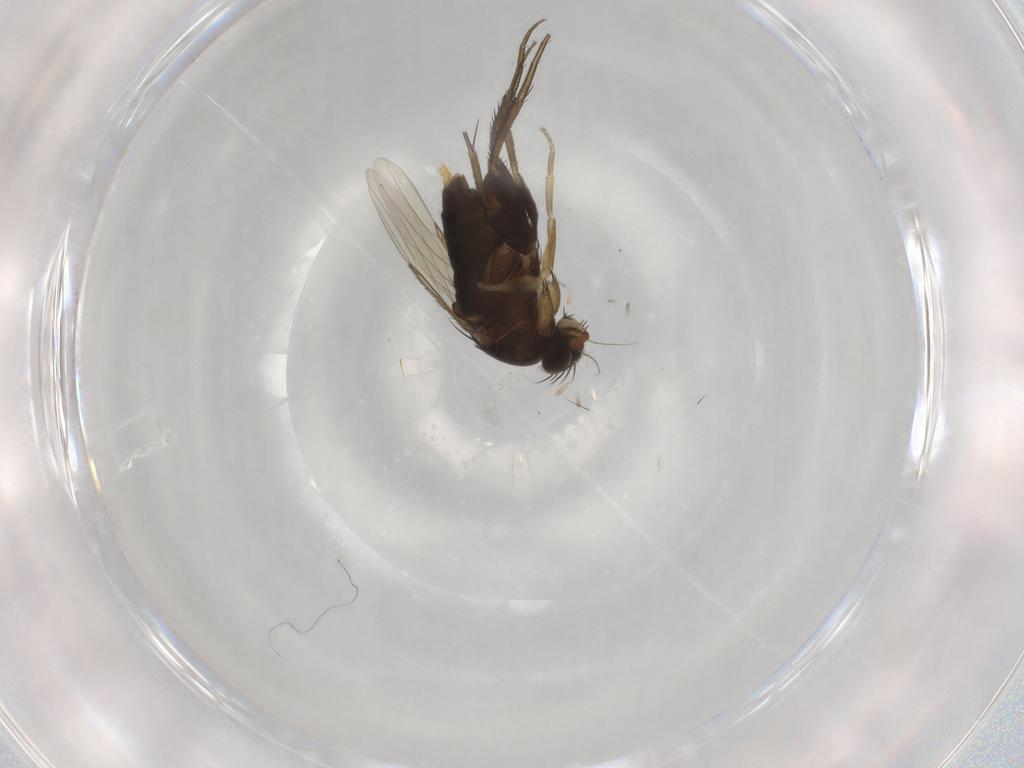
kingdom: Animalia
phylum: Arthropoda
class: Insecta
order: Diptera
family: Phoridae
